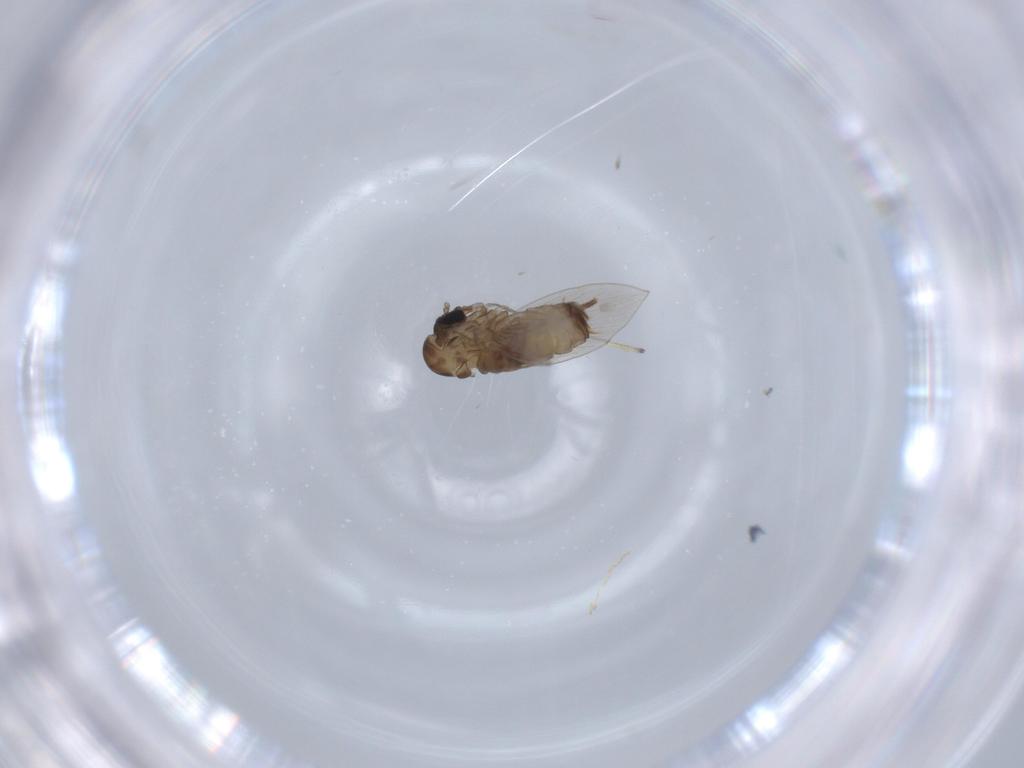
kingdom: Animalia
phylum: Arthropoda
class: Insecta
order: Diptera
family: Psychodidae
